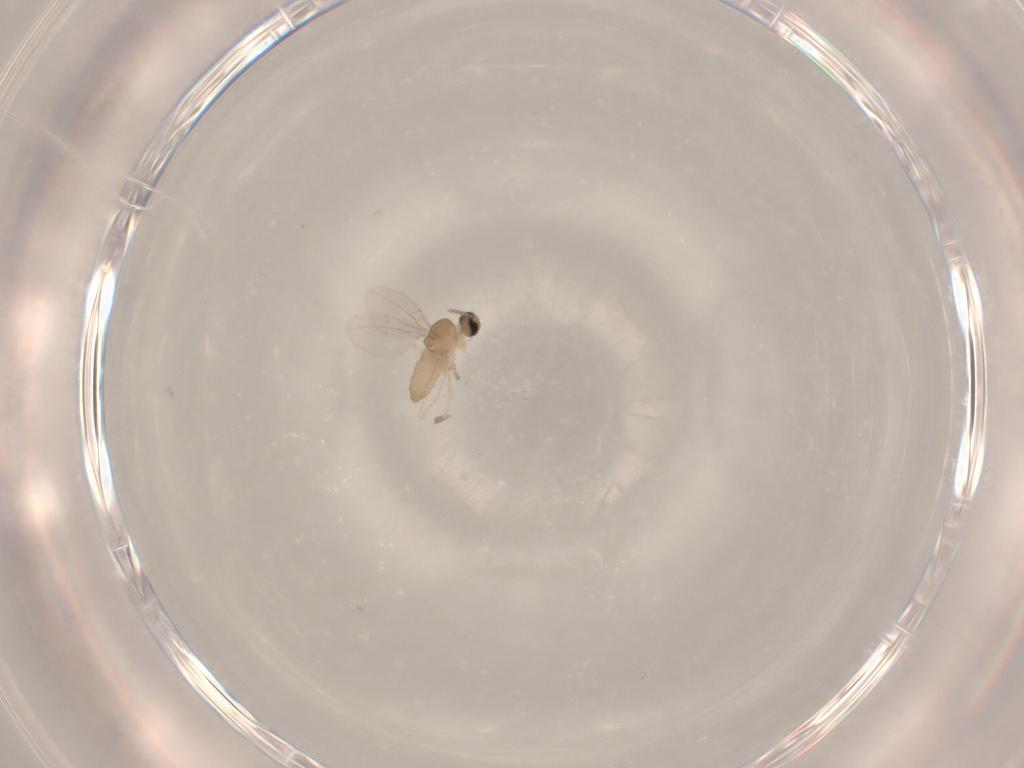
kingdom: Animalia
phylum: Arthropoda
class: Insecta
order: Diptera
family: Cecidomyiidae
